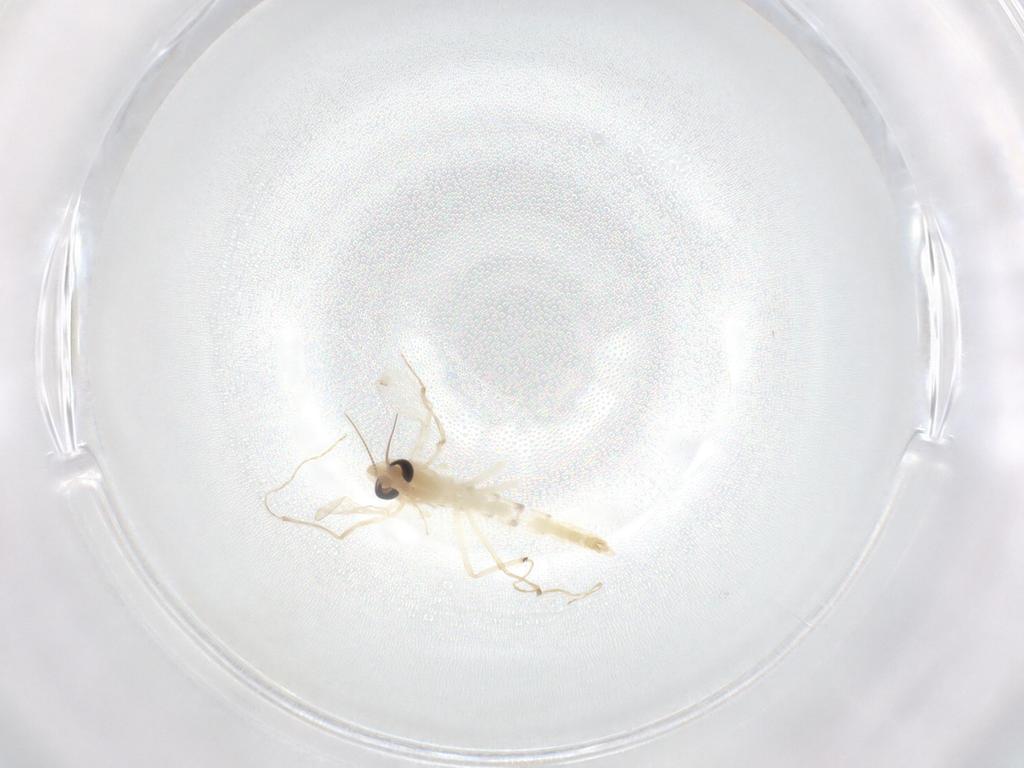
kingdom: Animalia
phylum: Arthropoda
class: Insecta
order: Diptera
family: Chironomidae
